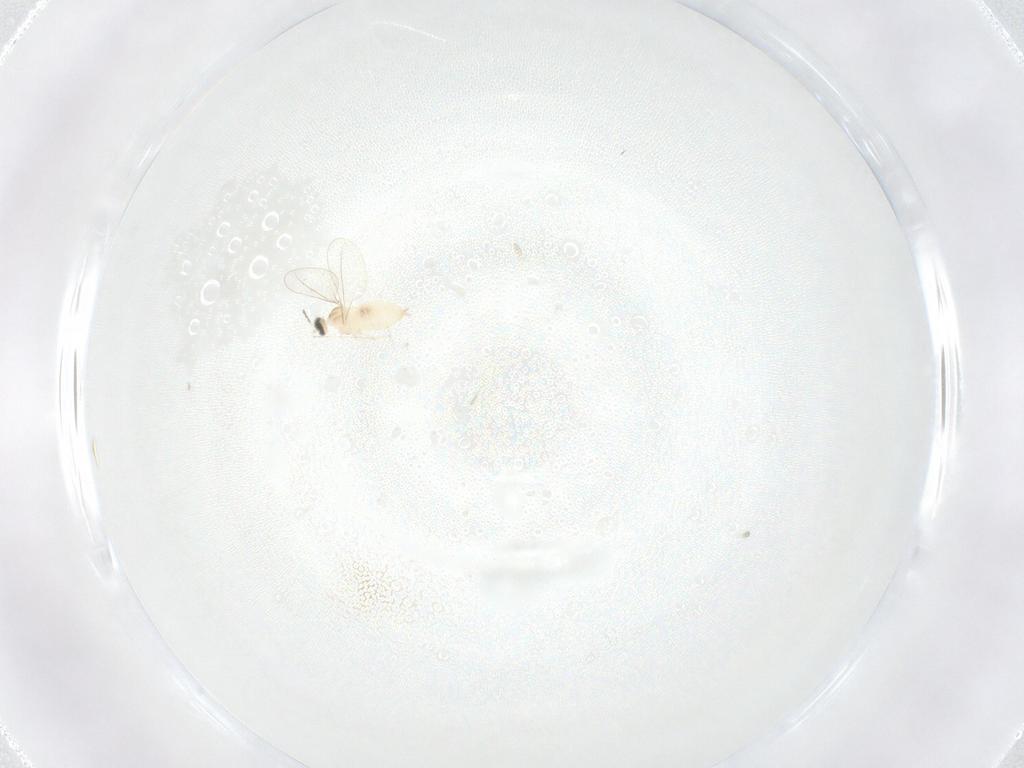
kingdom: Animalia
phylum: Arthropoda
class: Insecta
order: Diptera
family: Cecidomyiidae
